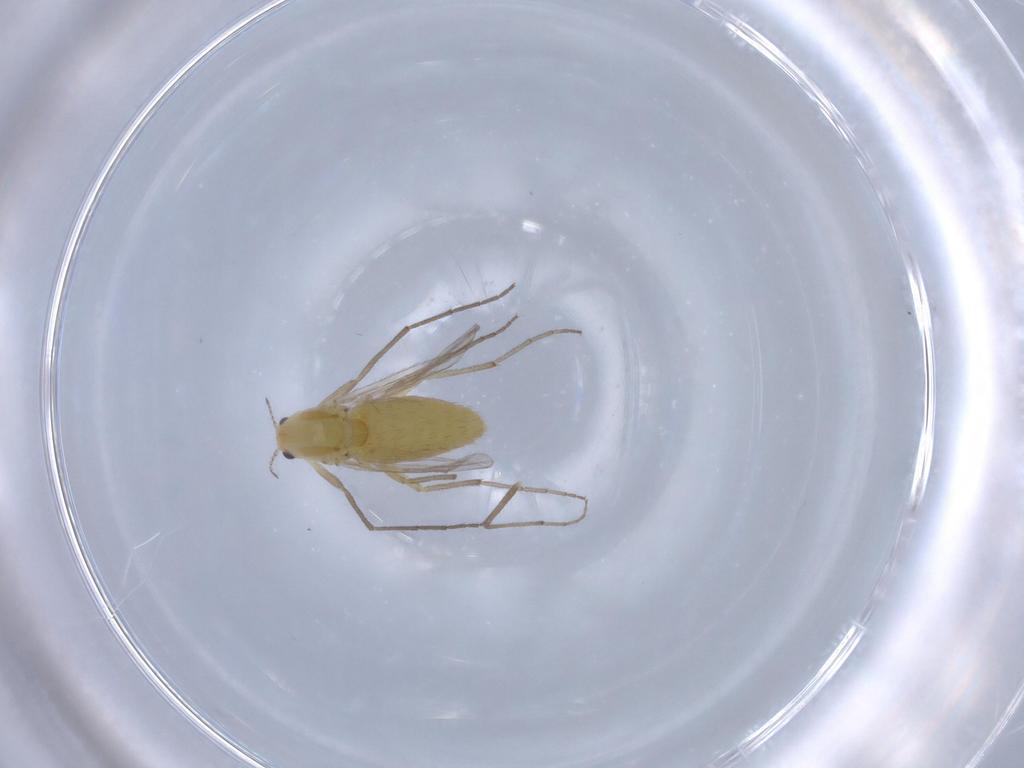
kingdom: Animalia
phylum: Arthropoda
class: Insecta
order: Diptera
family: Chironomidae
